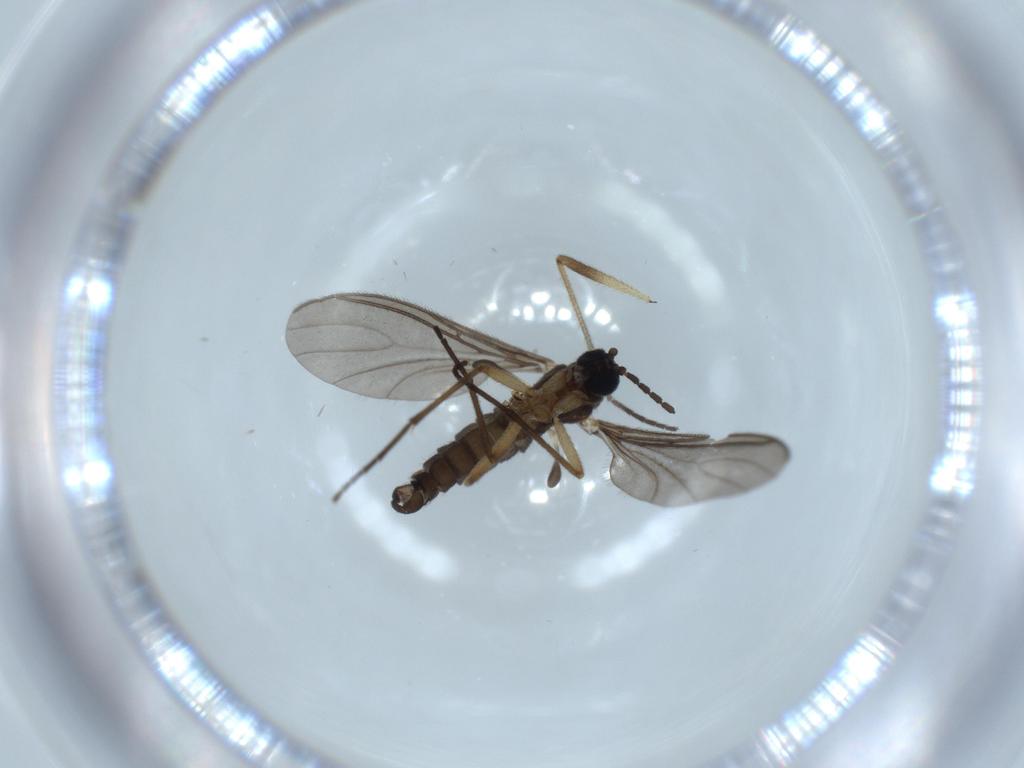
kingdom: Animalia
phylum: Arthropoda
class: Insecta
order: Diptera
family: Sciaridae
